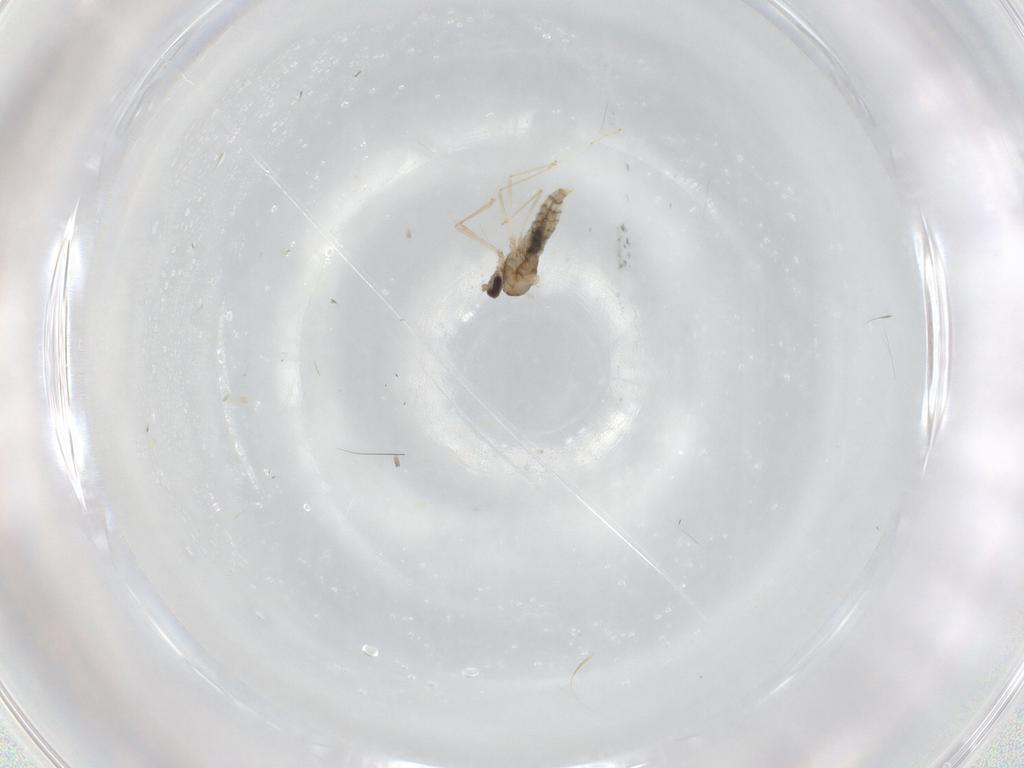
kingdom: Animalia
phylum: Arthropoda
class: Insecta
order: Diptera
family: Cecidomyiidae
